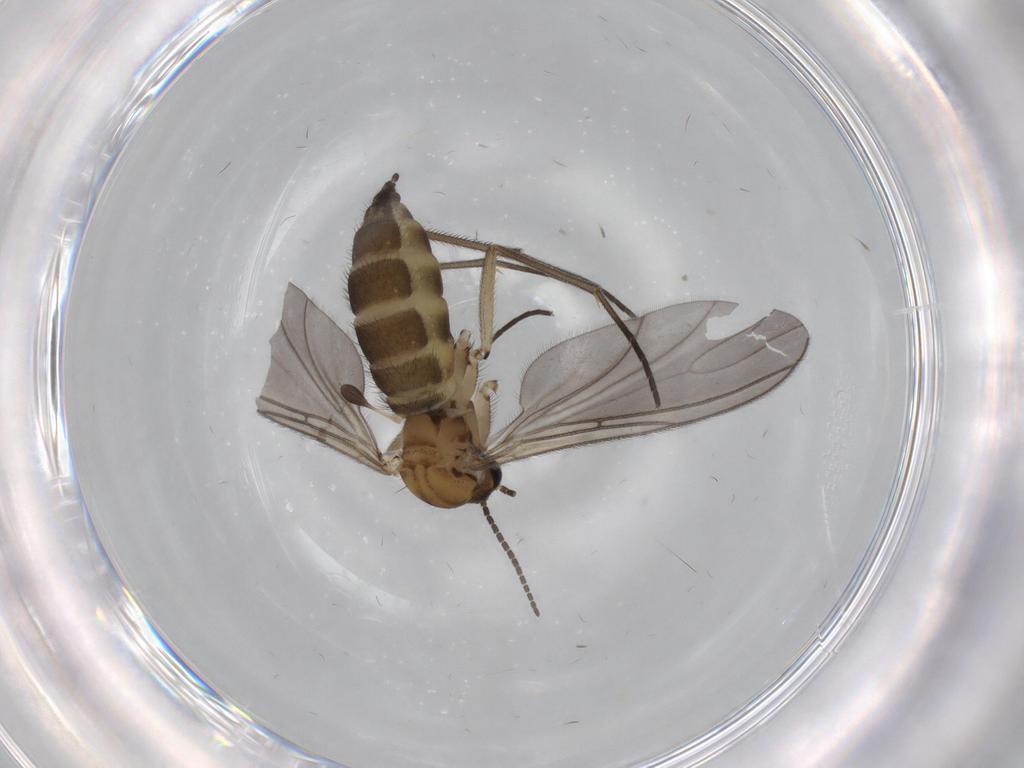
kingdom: Animalia
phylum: Arthropoda
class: Insecta
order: Diptera
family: Sciaridae
